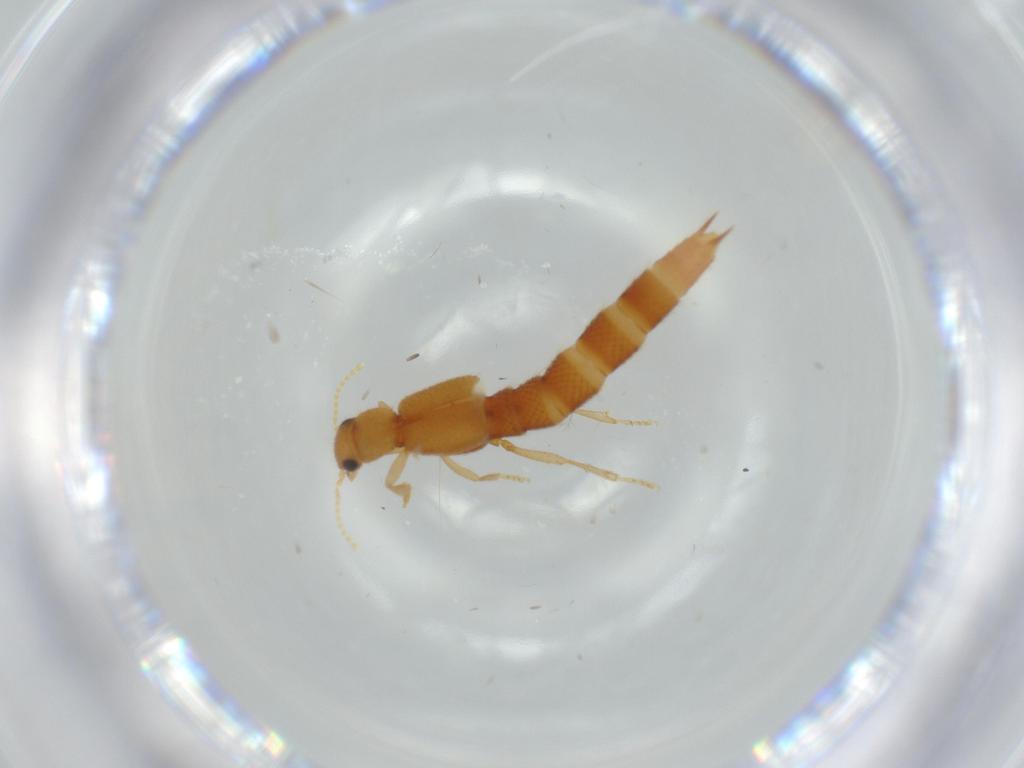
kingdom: Animalia
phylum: Arthropoda
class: Insecta
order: Coleoptera
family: Staphylinidae
